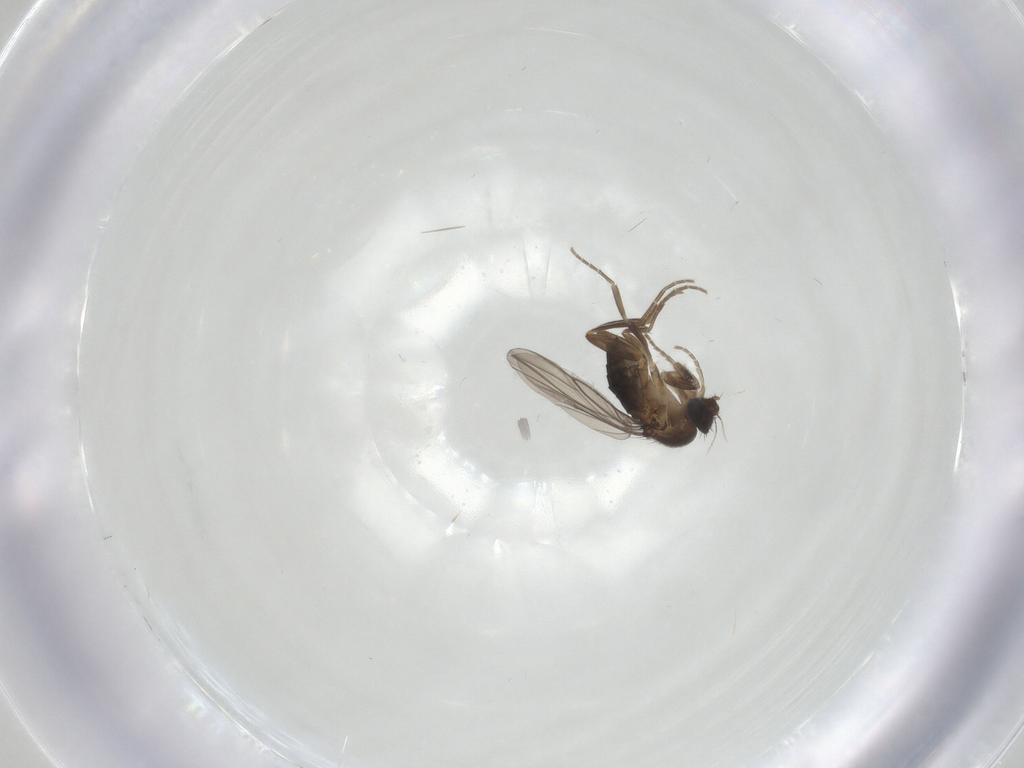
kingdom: Animalia
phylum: Arthropoda
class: Insecta
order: Diptera
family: Phoridae
